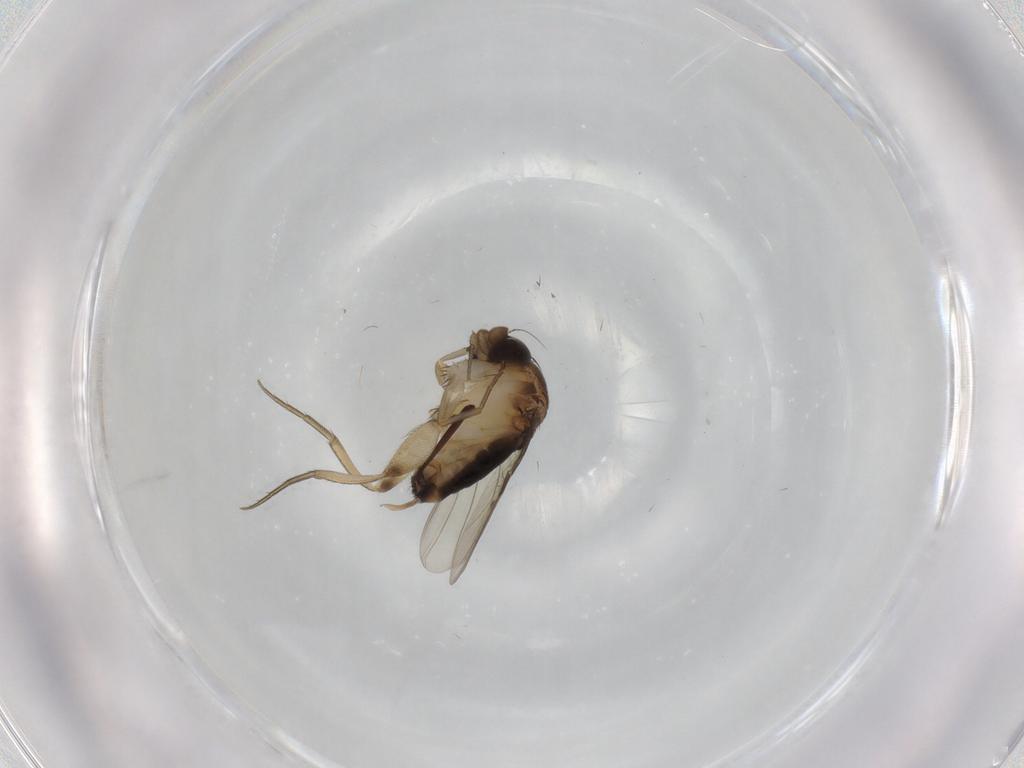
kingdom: Animalia
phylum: Arthropoda
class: Insecta
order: Diptera
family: Phoridae
